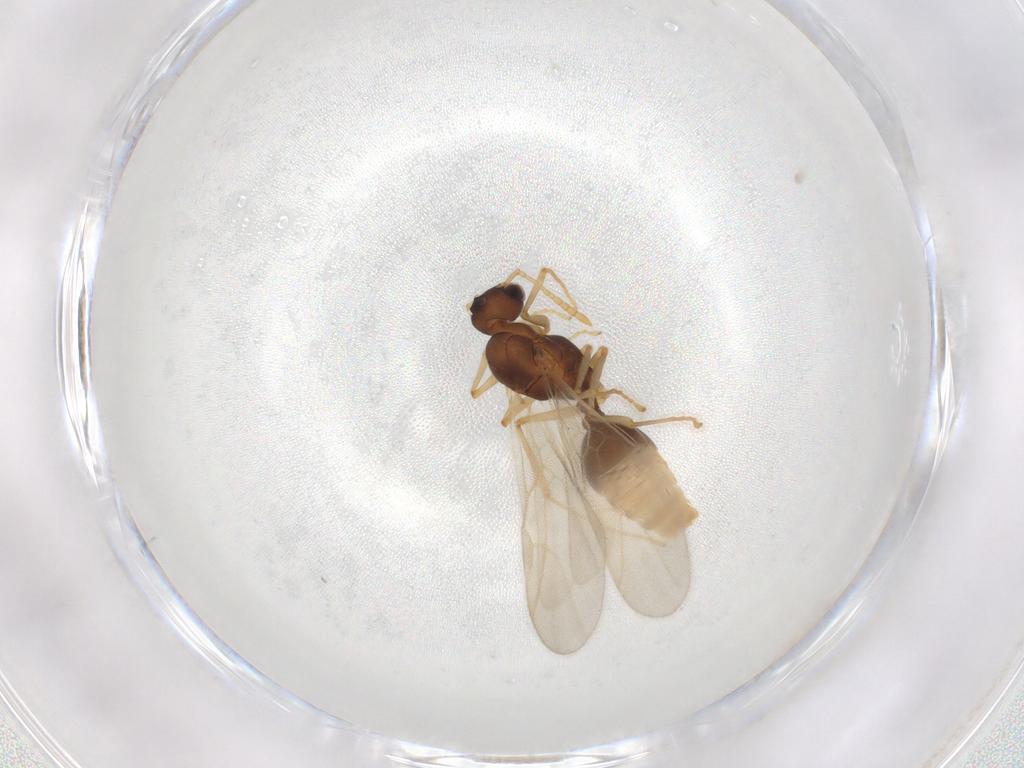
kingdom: Animalia
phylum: Arthropoda
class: Insecta
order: Hymenoptera
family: Formicidae
